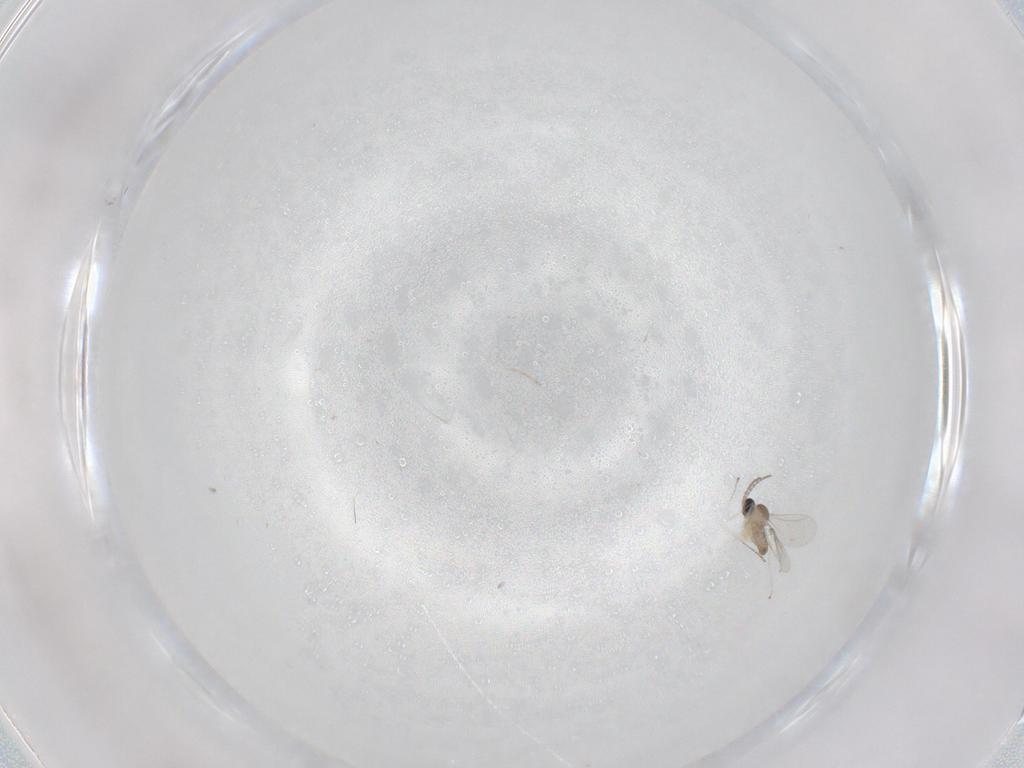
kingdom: Animalia
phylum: Arthropoda
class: Insecta
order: Diptera
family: Cecidomyiidae
